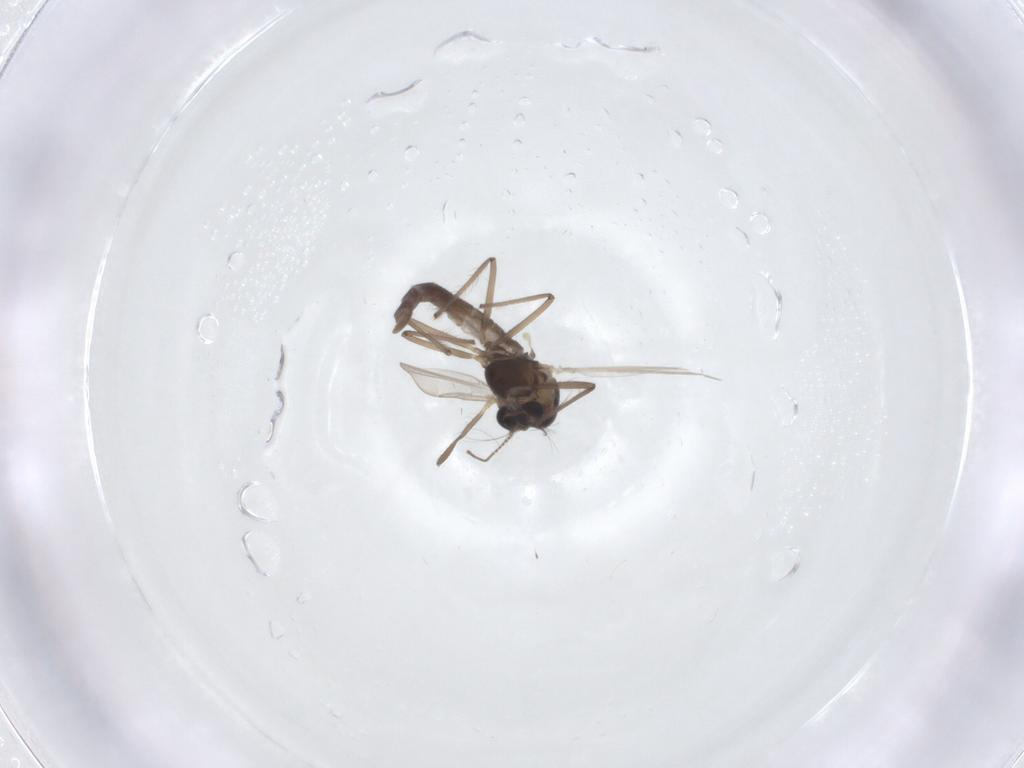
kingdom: Animalia
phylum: Arthropoda
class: Insecta
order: Diptera
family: Chironomidae
